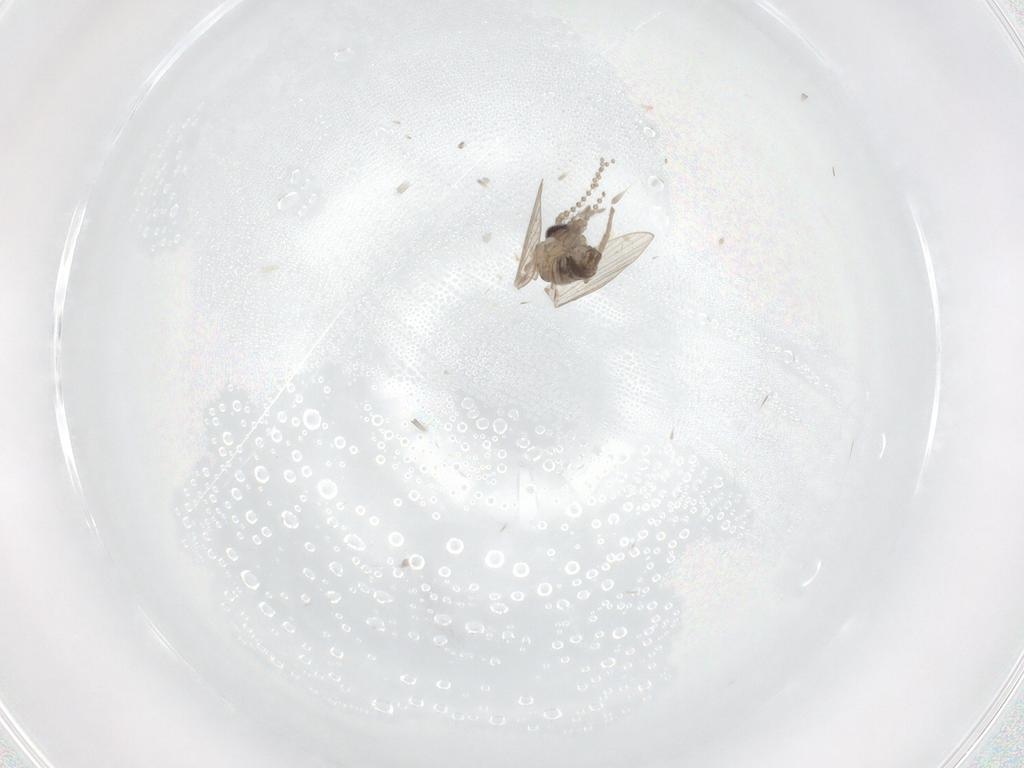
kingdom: Animalia
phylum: Arthropoda
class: Insecta
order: Diptera
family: Psychodidae
